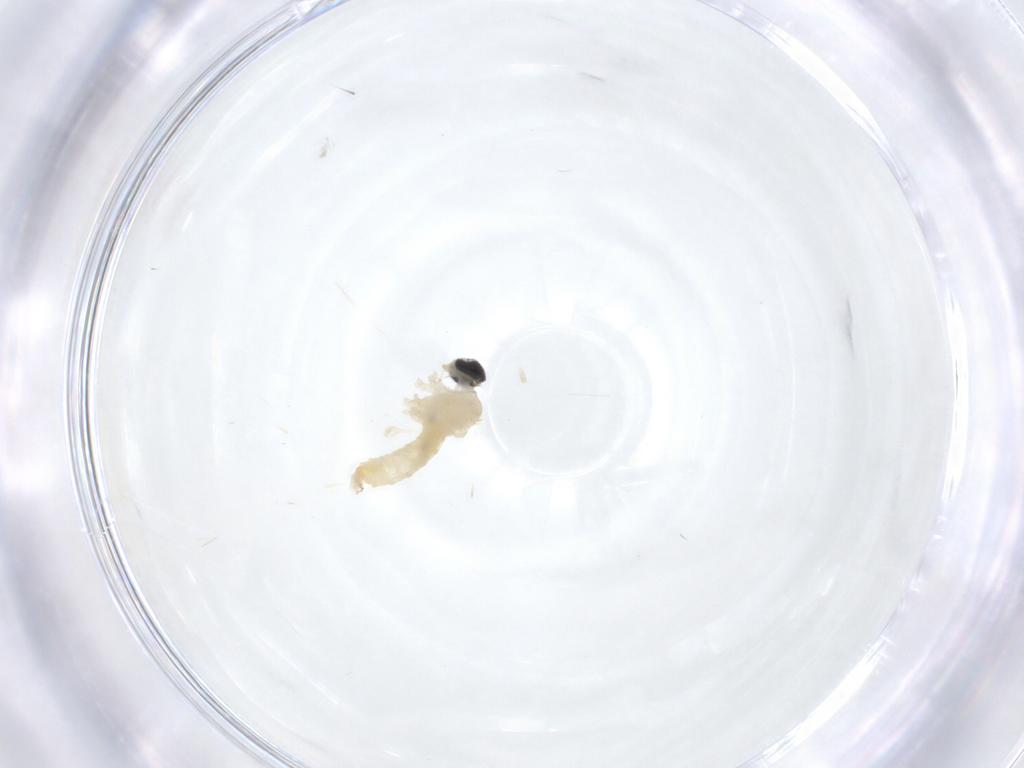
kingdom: Animalia
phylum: Arthropoda
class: Insecta
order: Diptera
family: Cecidomyiidae
